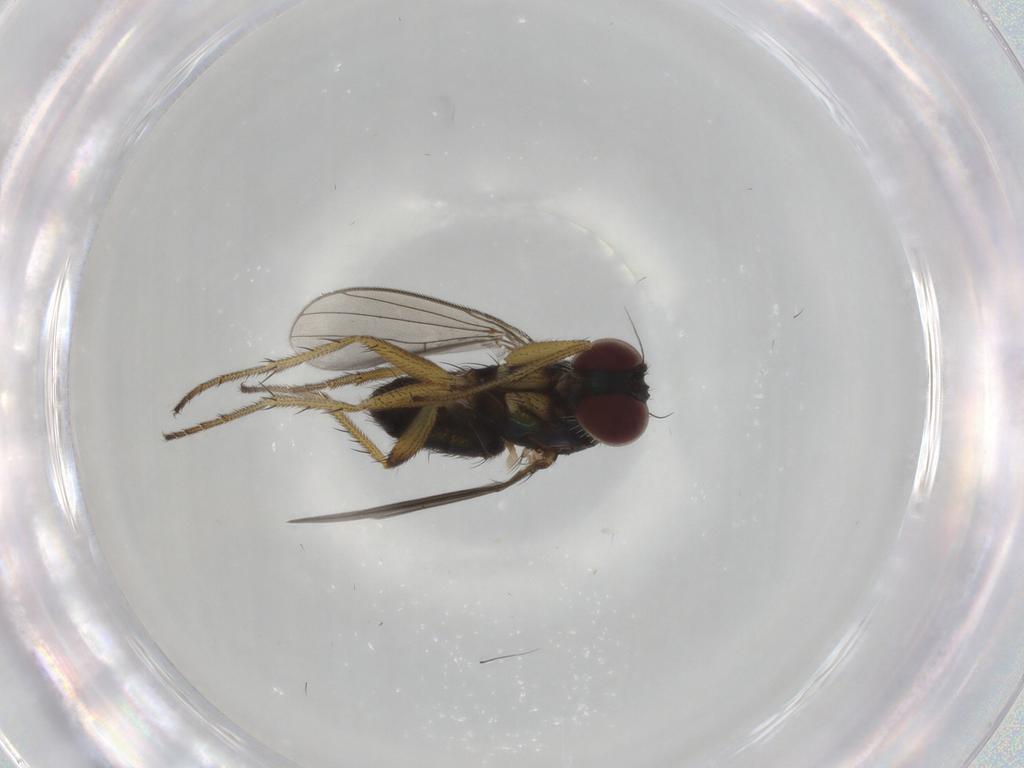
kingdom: Animalia
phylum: Arthropoda
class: Insecta
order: Diptera
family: Dolichopodidae
